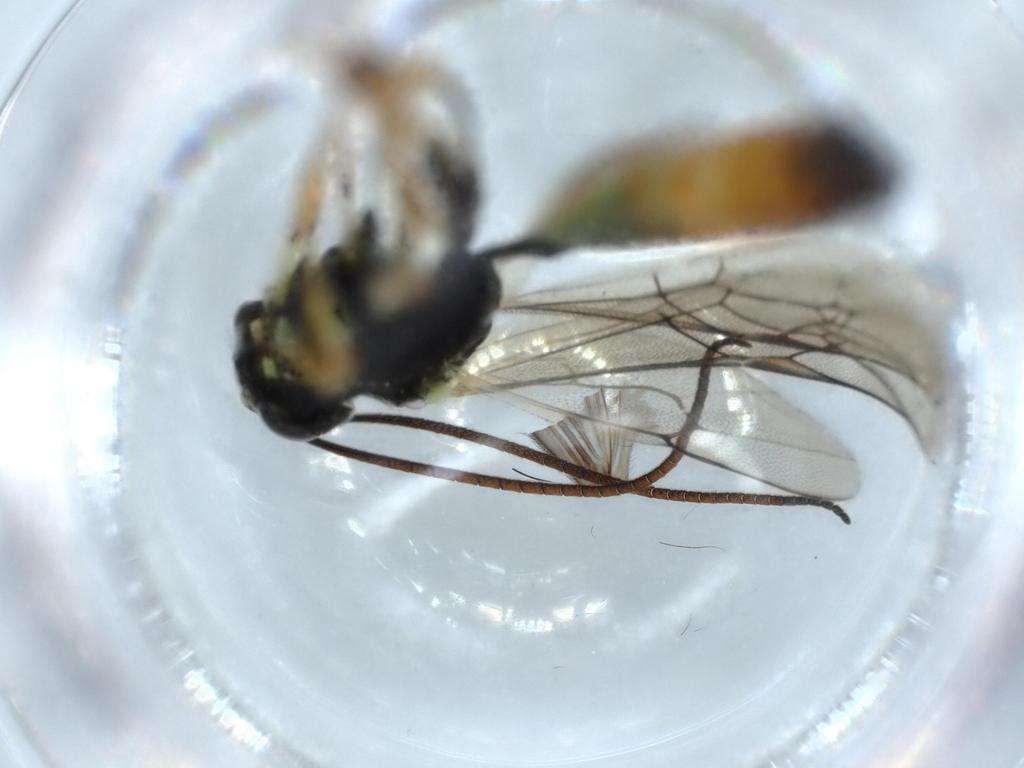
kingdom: Animalia
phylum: Arthropoda
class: Insecta
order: Hymenoptera
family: Ichneumonidae
